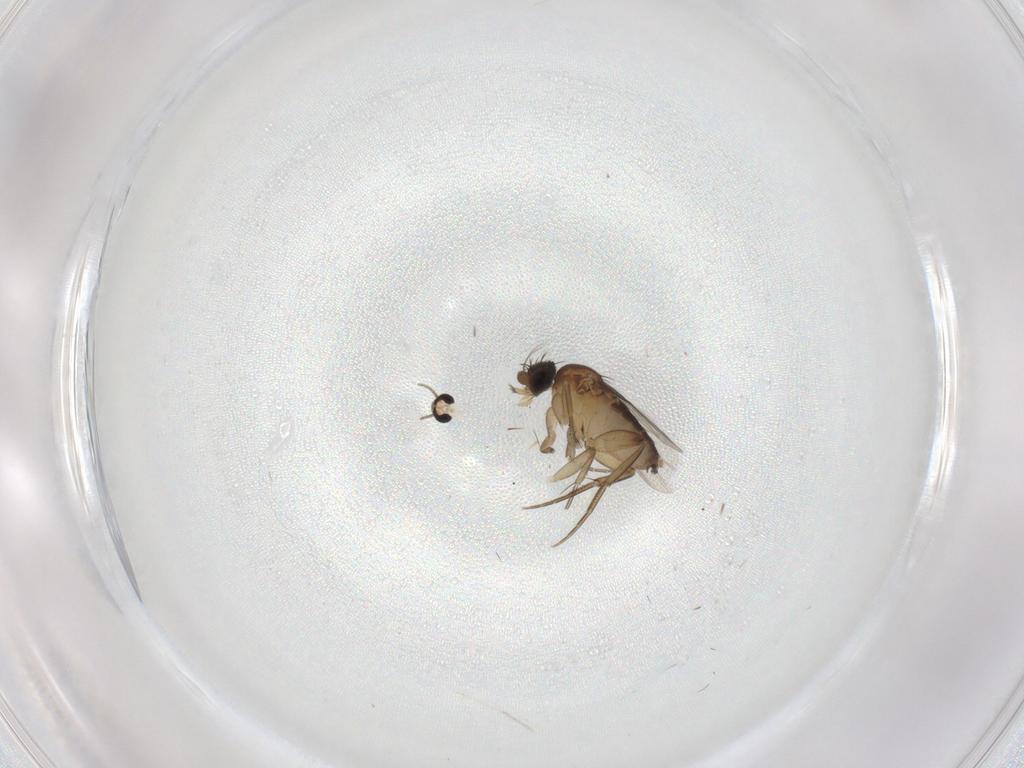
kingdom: Animalia
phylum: Arthropoda
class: Insecta
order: Diptera
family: Phoridae
